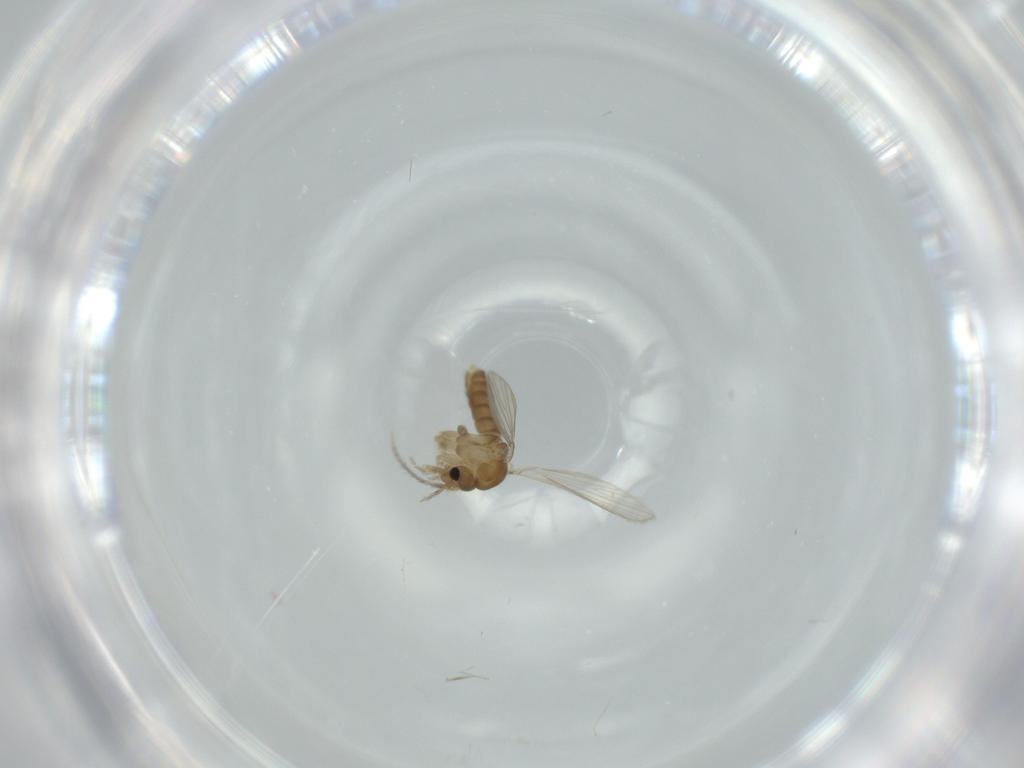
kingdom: Animalia
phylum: Arthropoda
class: Insecta
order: Diptera
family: Psychodidae
